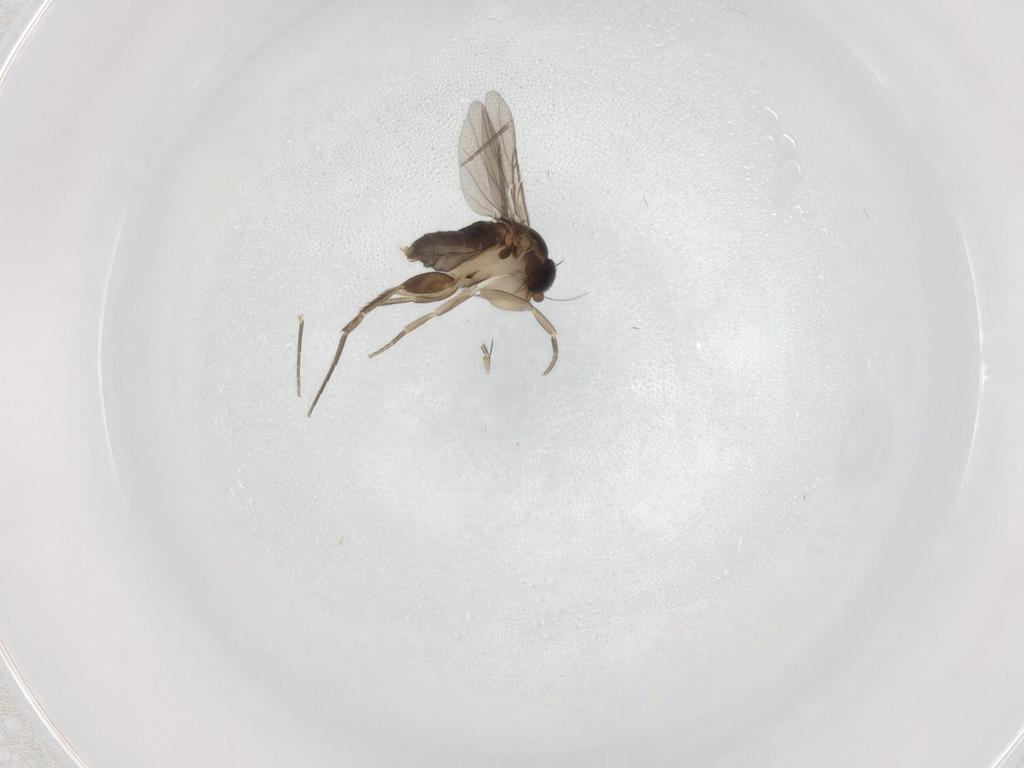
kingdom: Animalia
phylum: Arthropoda
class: Insecta
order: Diptera
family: Phoridae
